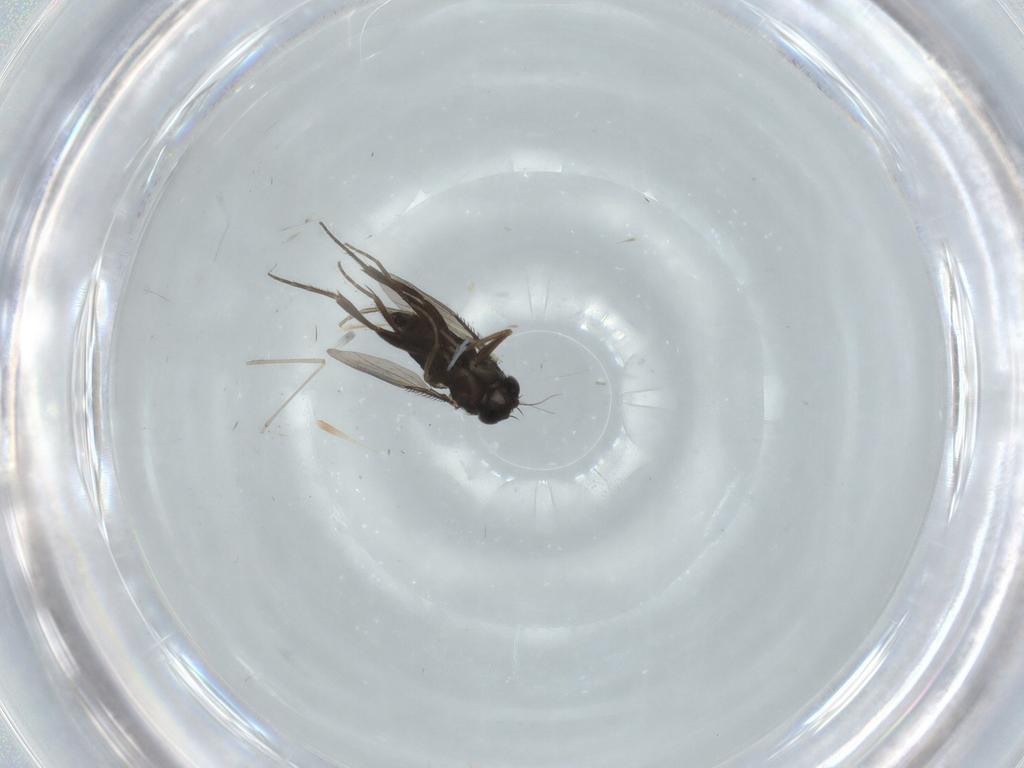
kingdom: Animalia
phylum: Arthropoda
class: Insecta
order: Diptera
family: Phoridae
